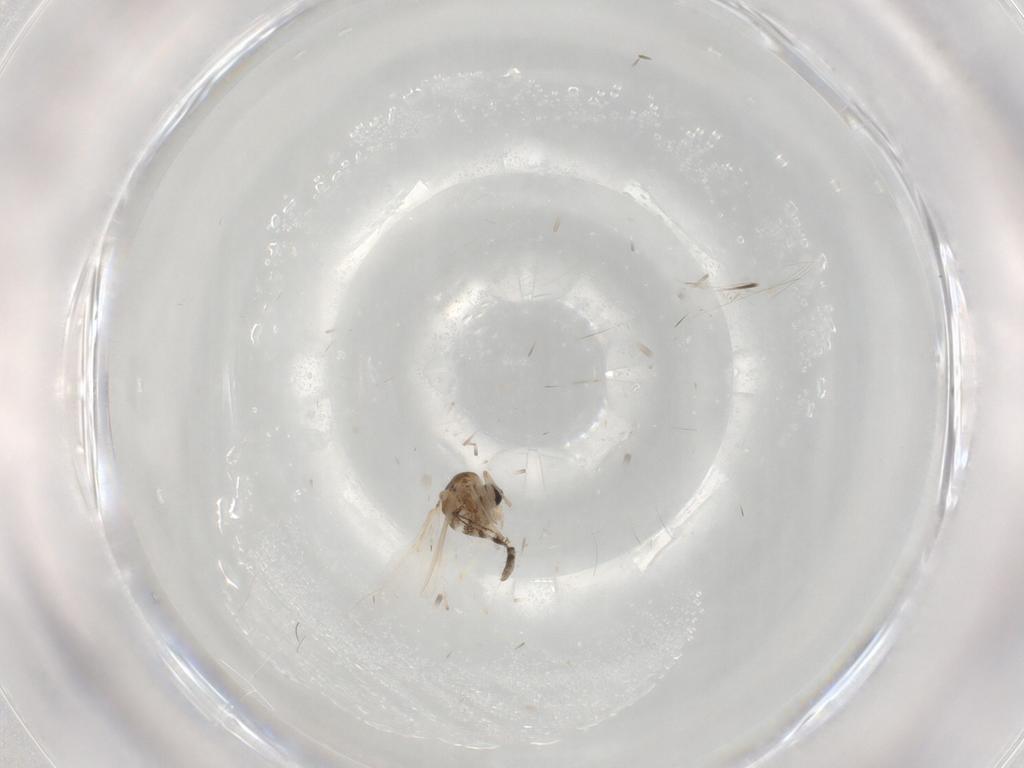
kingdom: Animalia
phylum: Arthropoda
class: Insecta
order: Diptera
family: Chironomidae
